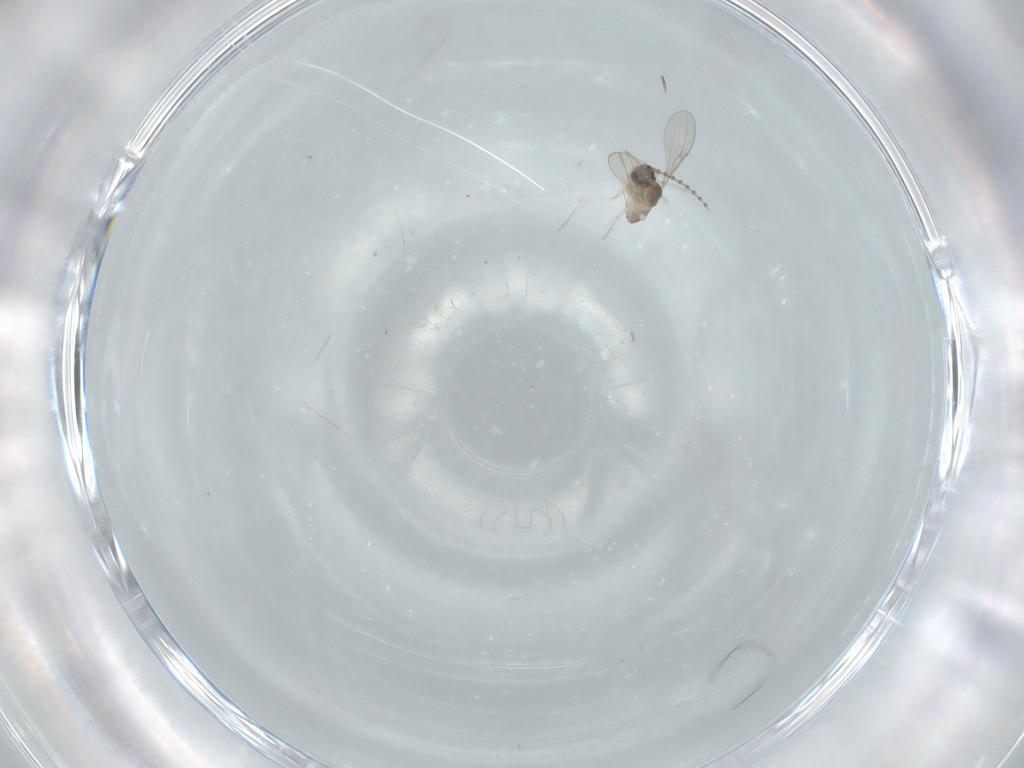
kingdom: Animalia
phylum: Arthropoda
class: Insecta
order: Diptera
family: Cecidomyiidae
